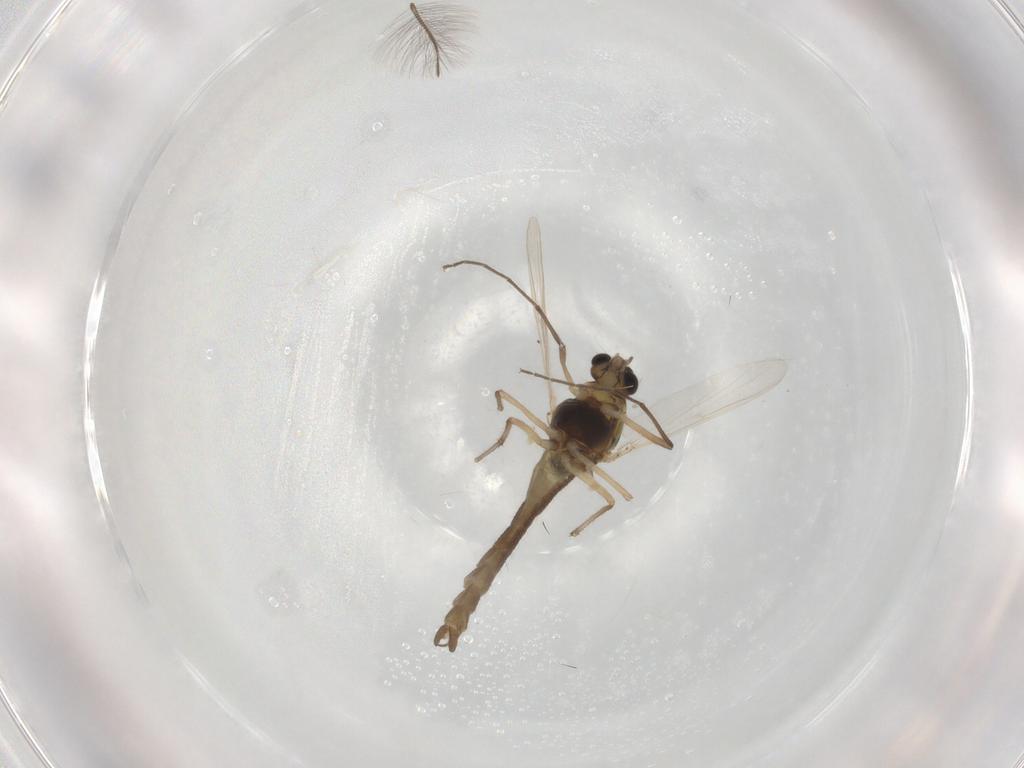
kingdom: Animalia
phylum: Arthropoda
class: Insecta
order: Diptera
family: Chironomidae
